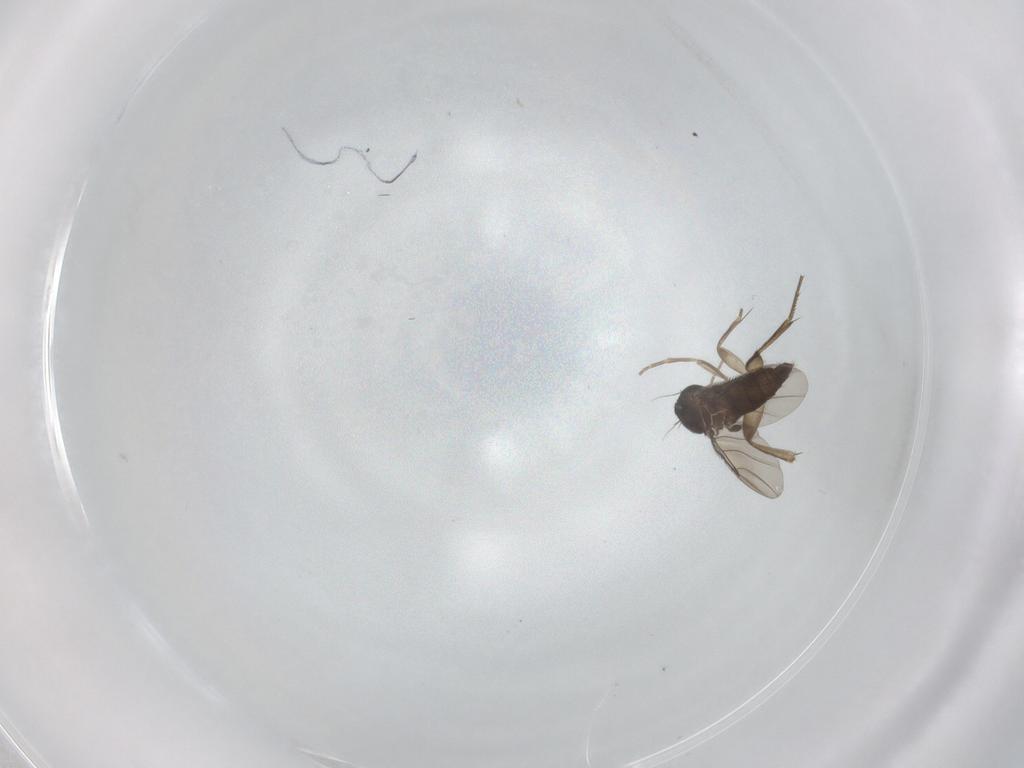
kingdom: Animalia
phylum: Arthropoda
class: Insecta
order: Diptera
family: Phoridae
